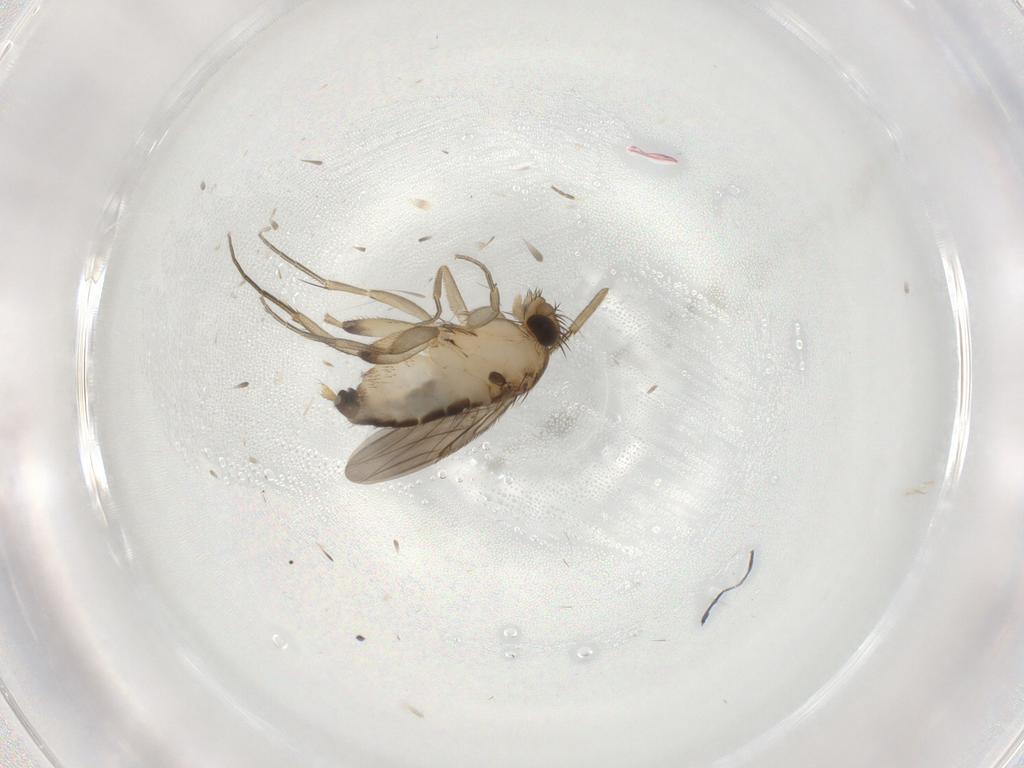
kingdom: Animalia
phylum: Arthropoda
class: Insecta
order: Diptera
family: Phoridae
